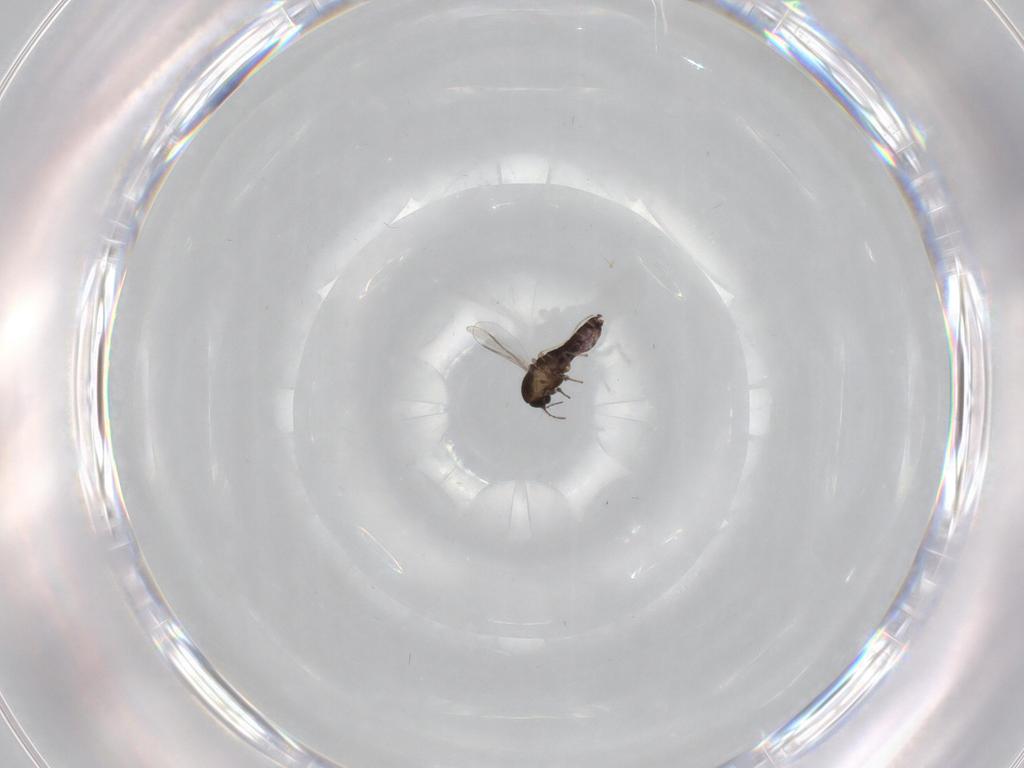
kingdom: Animalia
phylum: Arthropoda
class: Insecta
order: Diptera
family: Chironomidae
